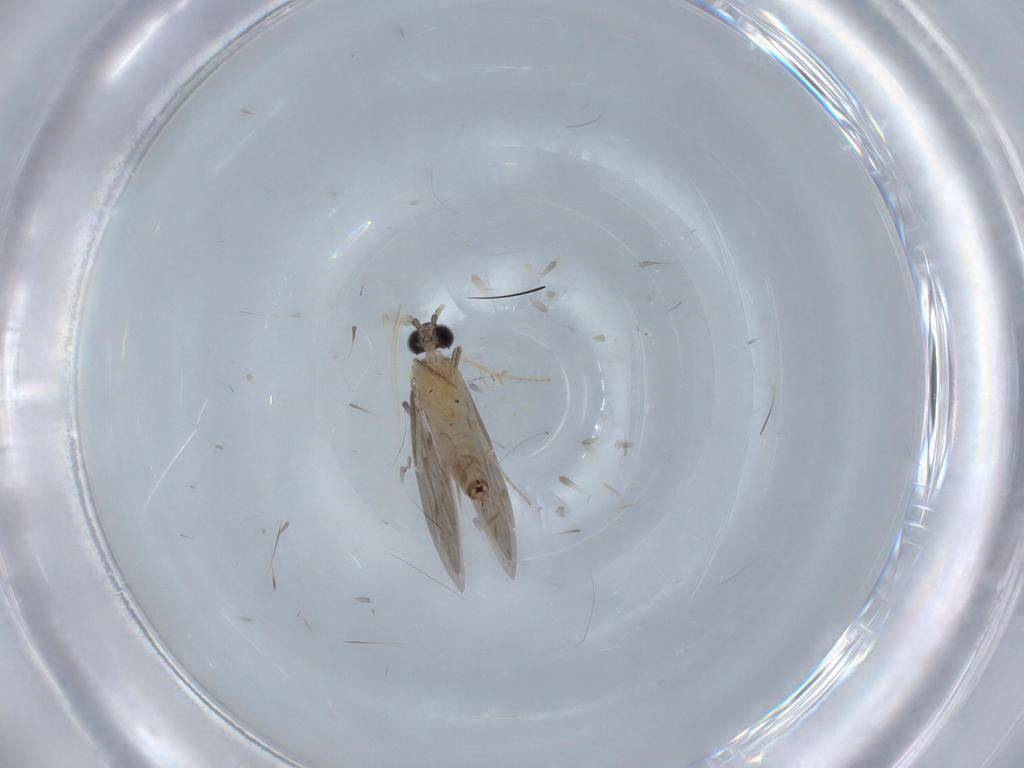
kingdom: Animalia
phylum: Arthropoda
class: Insecta
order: Trichoptera
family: Hydroptilidae
